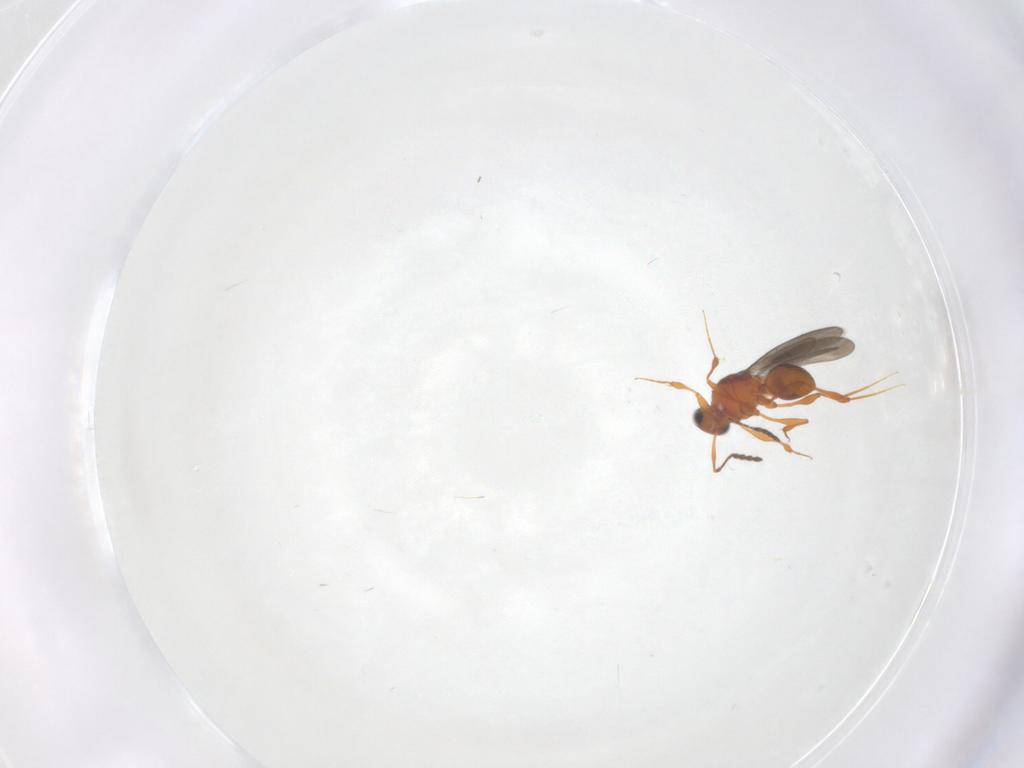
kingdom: Animalia
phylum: Arthropoda
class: Insecta
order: Hymenoptera
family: Platygastridae
